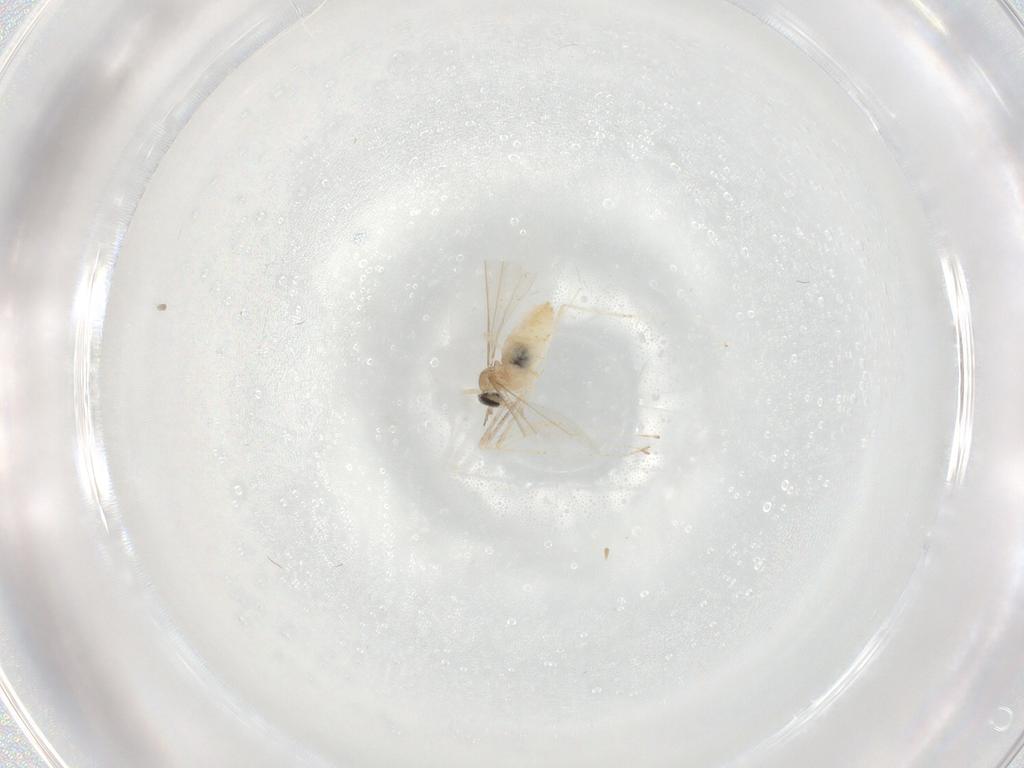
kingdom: Animalia
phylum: Arthropoda
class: Insecta
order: Diptera
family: Cecidomyiidae
